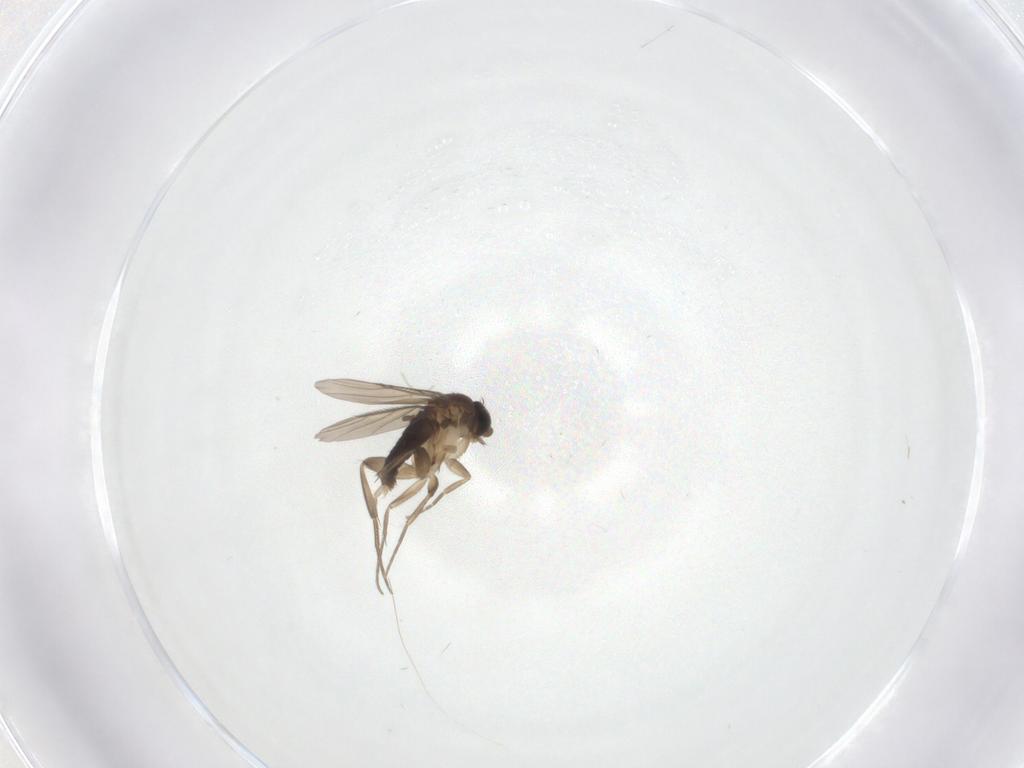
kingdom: Animalia
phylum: Arthropoda
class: Insecta
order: Diptera
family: Phoridae
